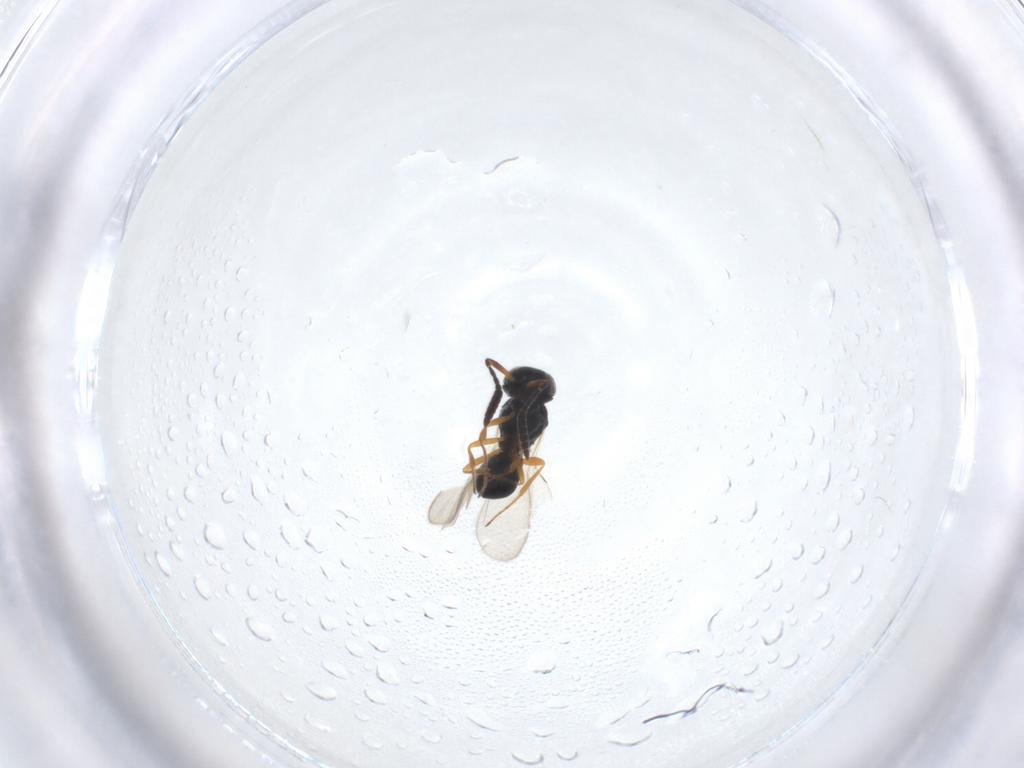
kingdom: Animalia
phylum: Arthropoda
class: Insecta
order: Hymenoptera
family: Scelionidae
